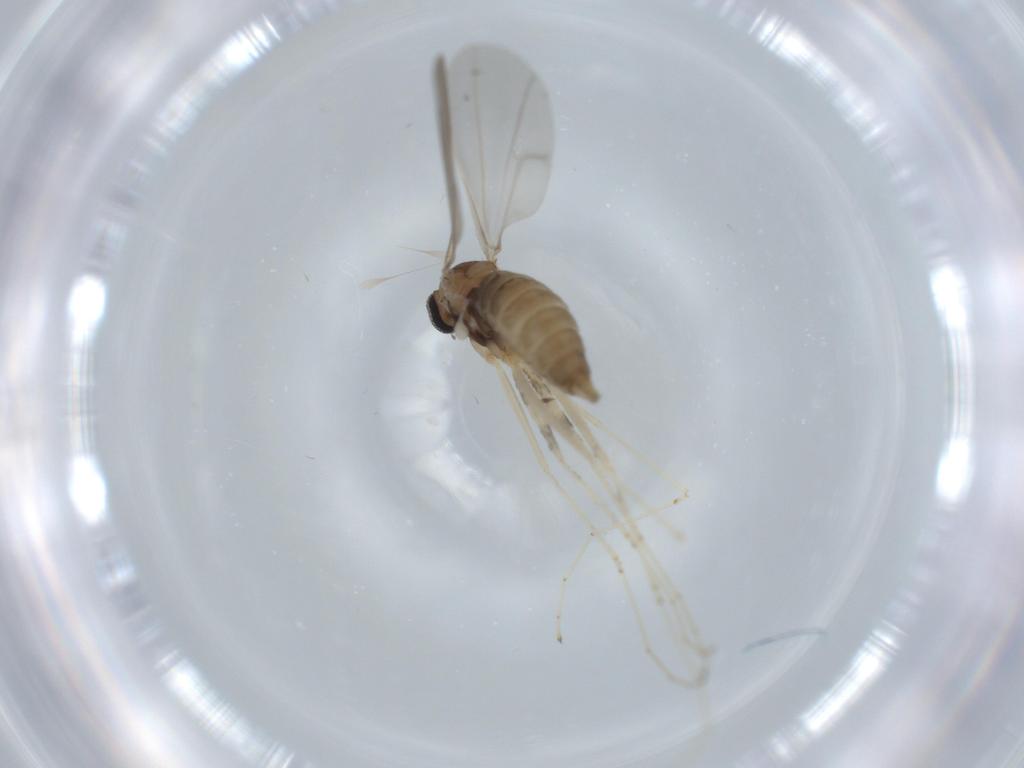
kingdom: Animalia
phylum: Arthropoda
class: Insecta
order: Diptera
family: Cecidomyiidae
